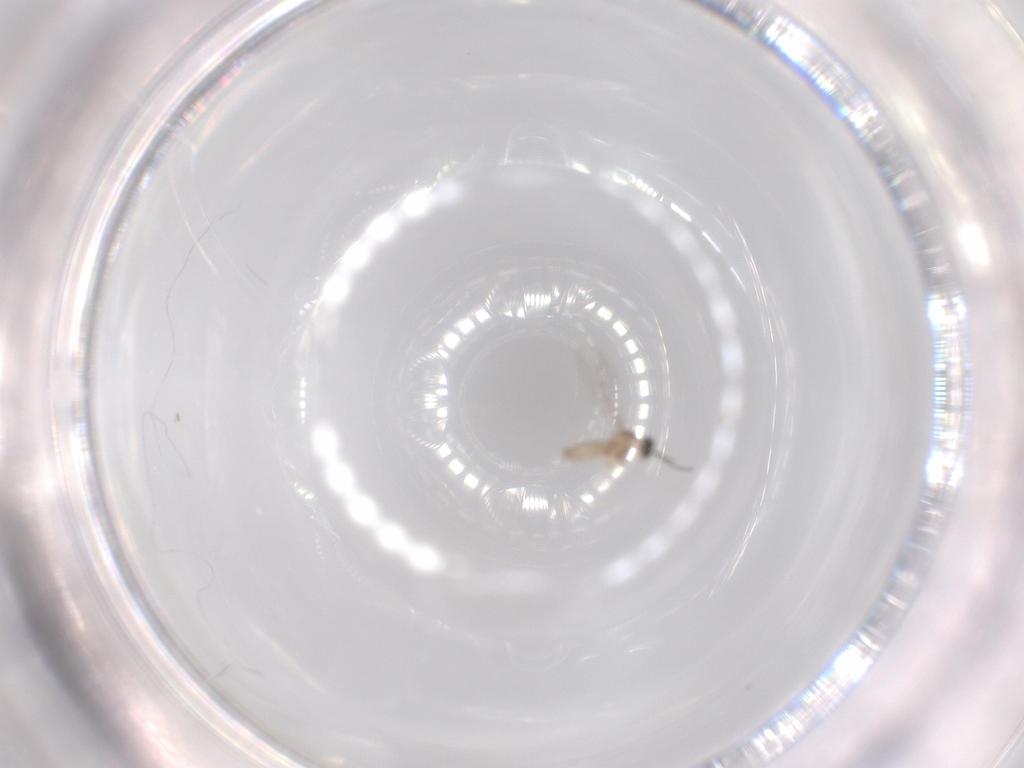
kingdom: Animalia
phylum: Arthropoda
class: Insecta
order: Diptera
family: Cecidomyiidae
